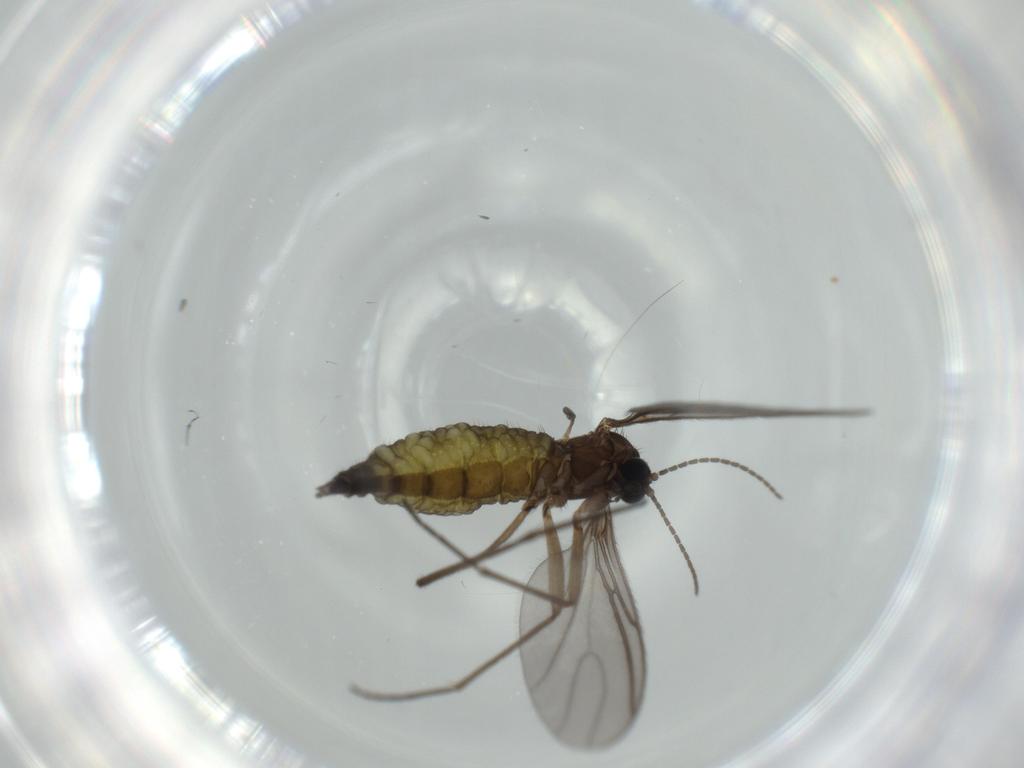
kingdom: Animalia
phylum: Arthropoda
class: Insecta
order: Diptera
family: Sciaridae
